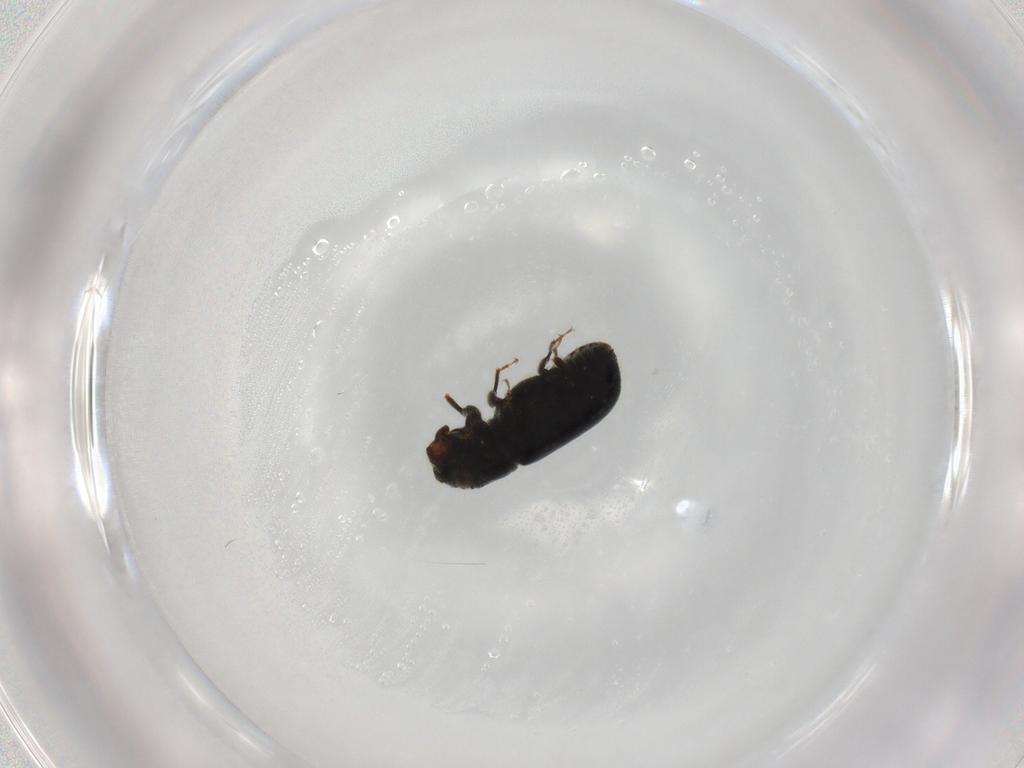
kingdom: Animalia
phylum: Arthropoda
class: Insecta
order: Coleoptera
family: Curculionidae
